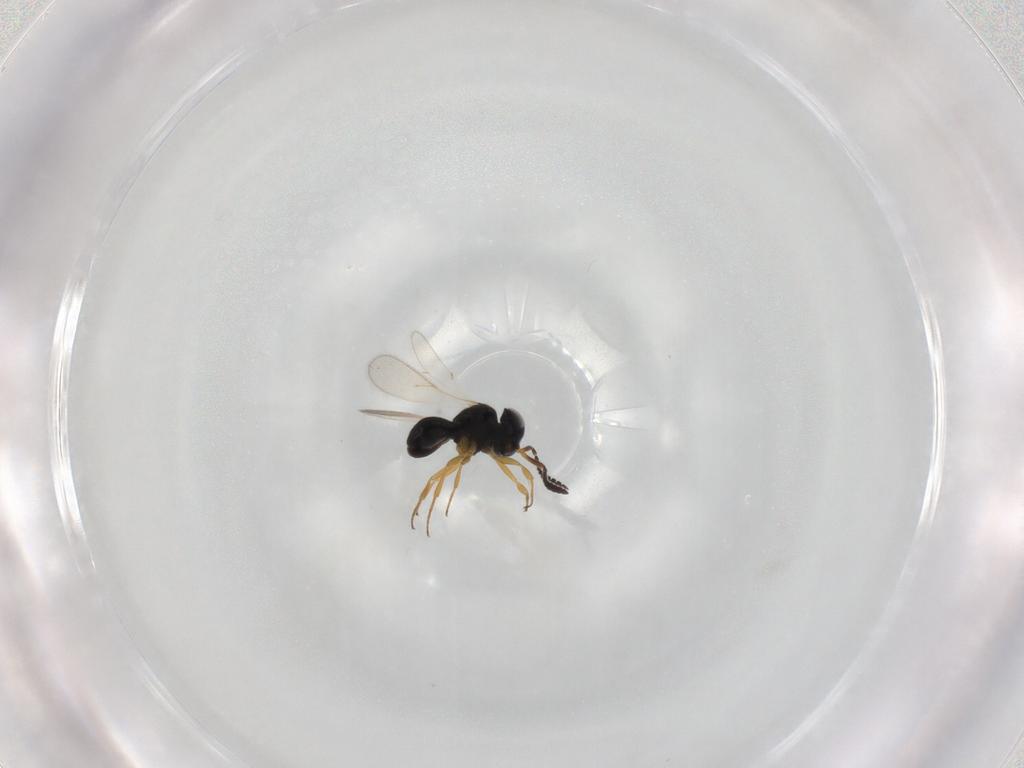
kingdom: Animalia
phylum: Arthropoda
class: Insecta
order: Hymenoptera
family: Scelionidae
